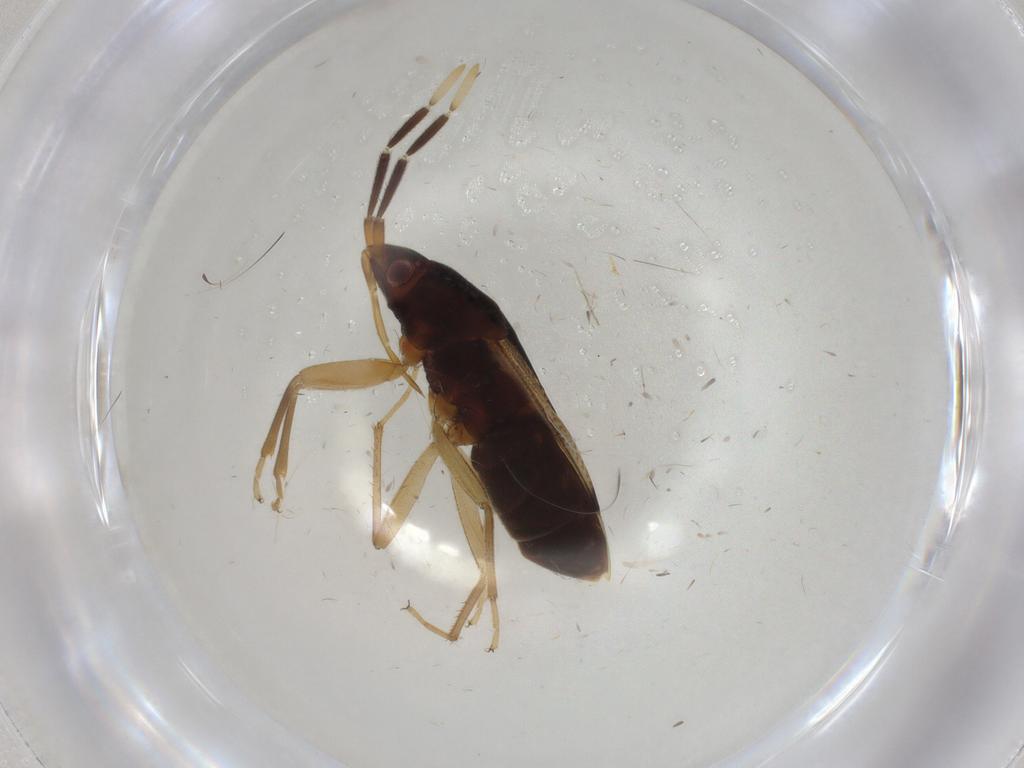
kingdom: Animalia
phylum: Arthropoda
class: Insecta
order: Hemiptera
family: Rhyparochromidae
